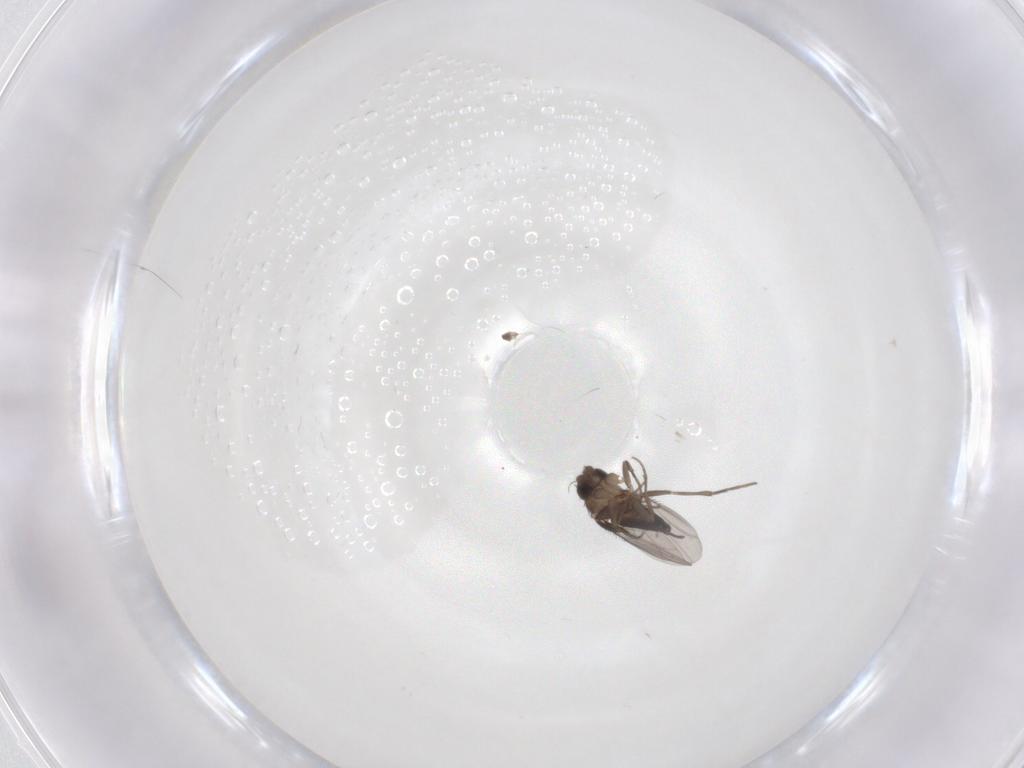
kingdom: Animalia
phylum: Arthropoda
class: Insecta
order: Diptera
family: Phoridae
